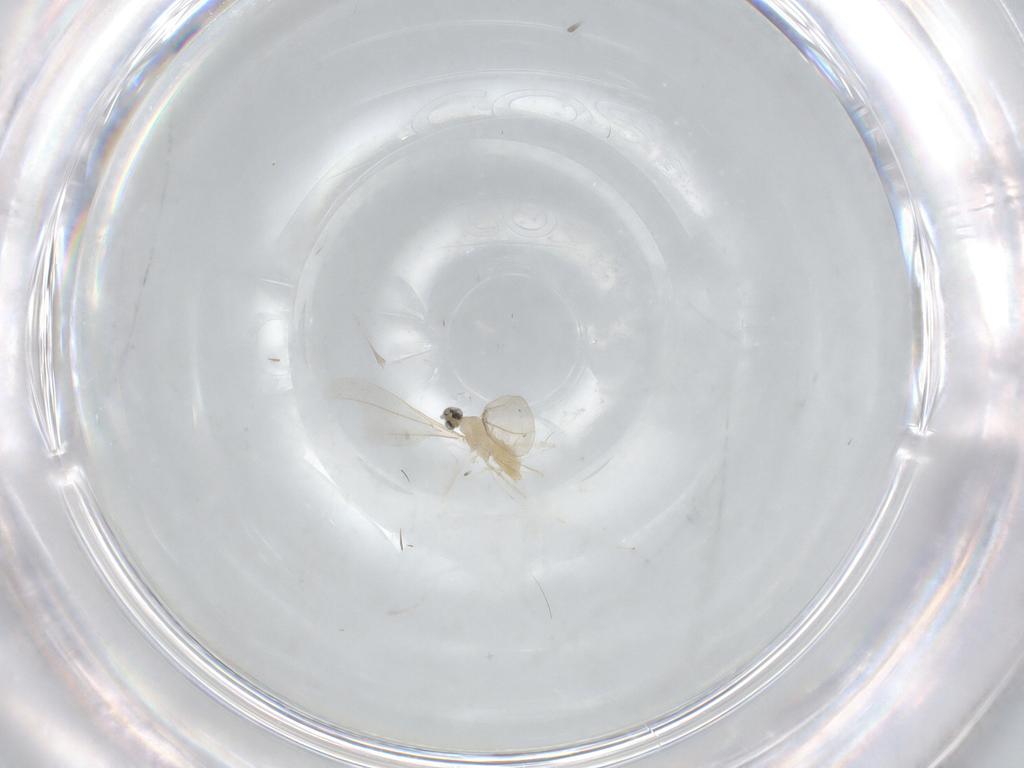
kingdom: Animalia
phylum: Arthropoda
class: Insecta
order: Diptera
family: Cecidomyiidae
